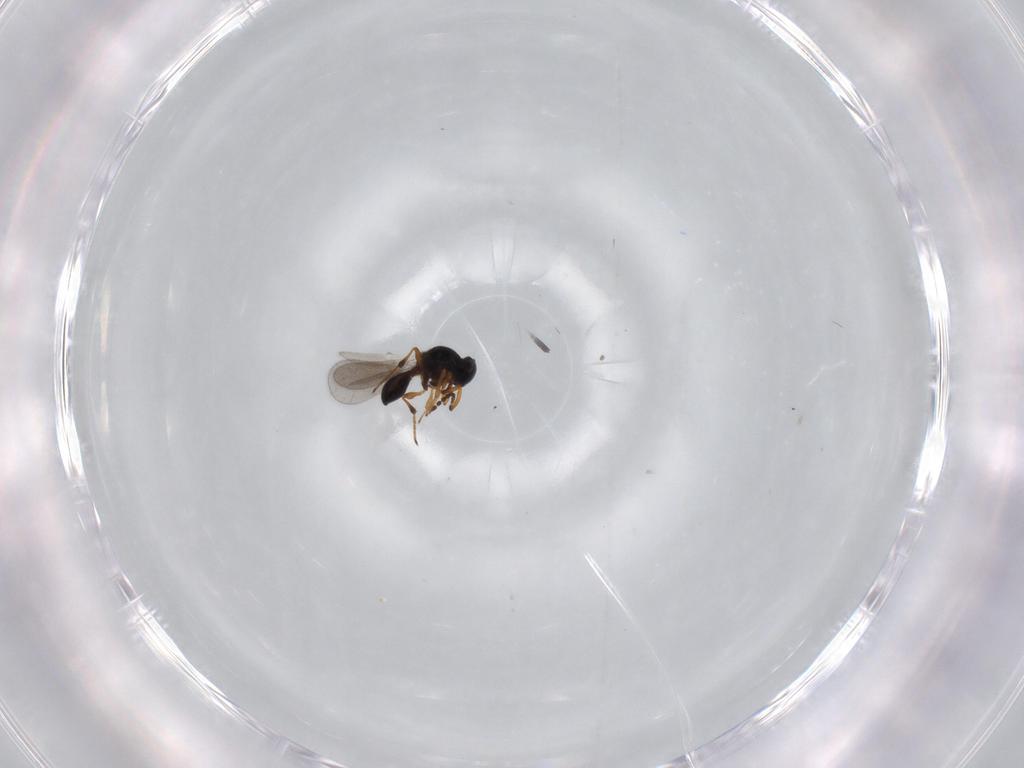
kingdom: Animalia
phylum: Arthropoda
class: Insecta
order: Hymenoptera
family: Platygastridae
